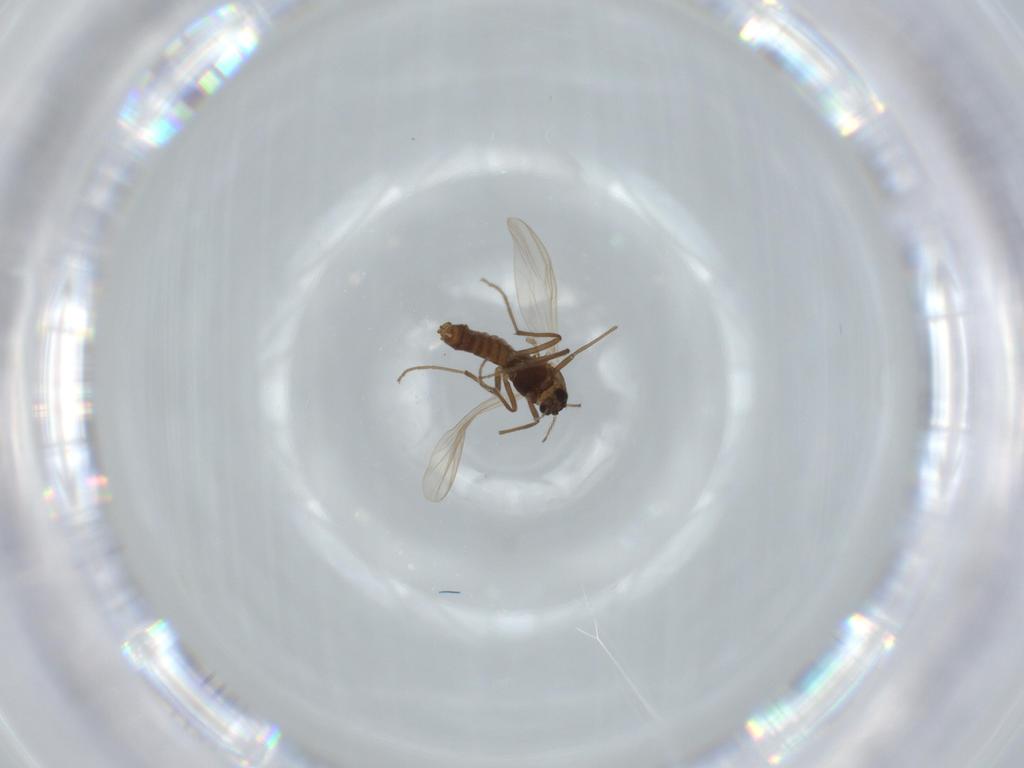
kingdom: Animalia
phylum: Arthropoda
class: Insecta
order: Diptera
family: Chironomidae
